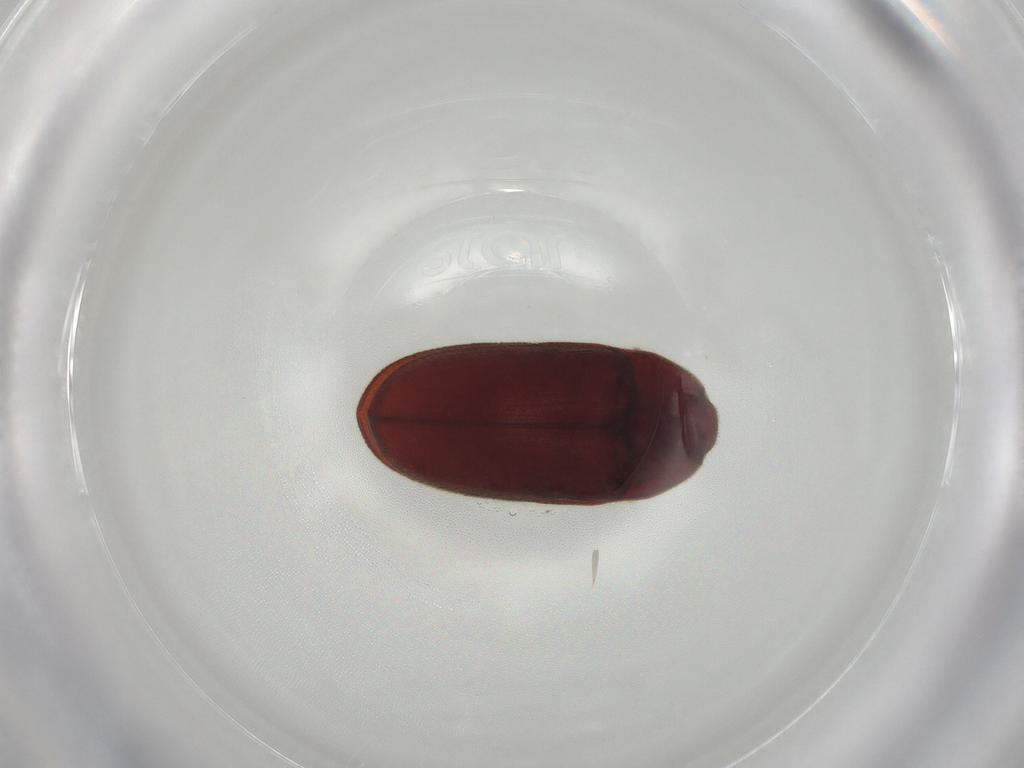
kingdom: Animalia
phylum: Arthropoda
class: Insecta
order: Coleoptera
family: Throscidae
